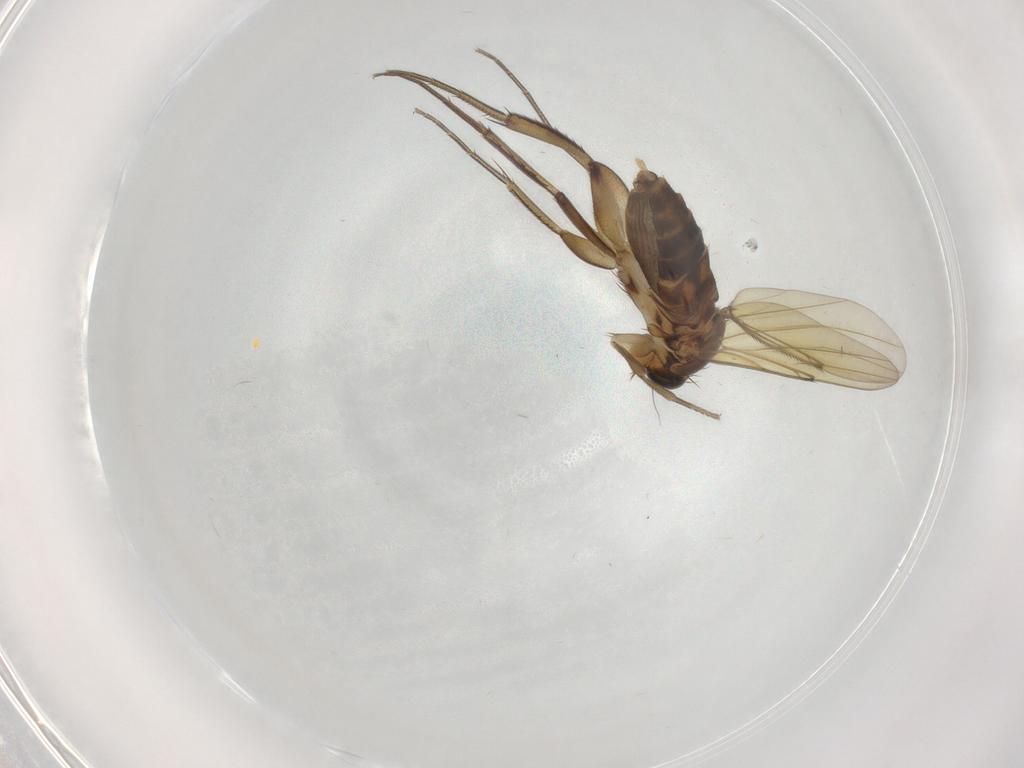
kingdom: Animalia
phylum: Arthropoda
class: Insecta
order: Diptera
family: Phoridae
